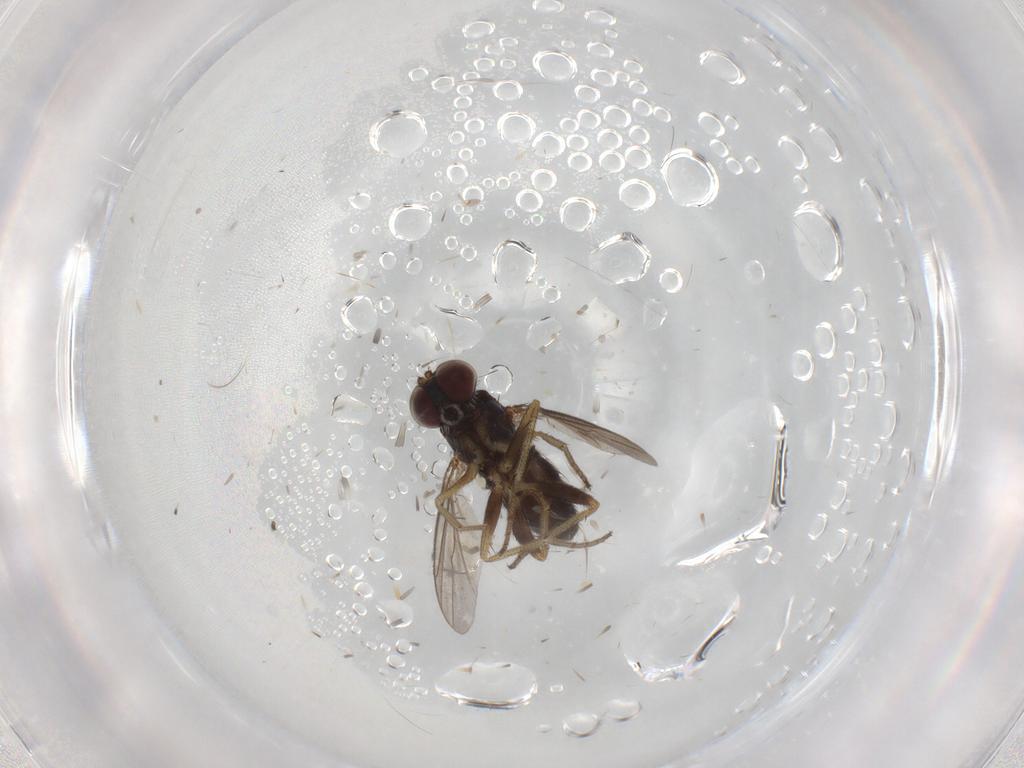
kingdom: Animalia
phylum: Arthropoda
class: Insecta
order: Diptera
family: Dolichopodidae
